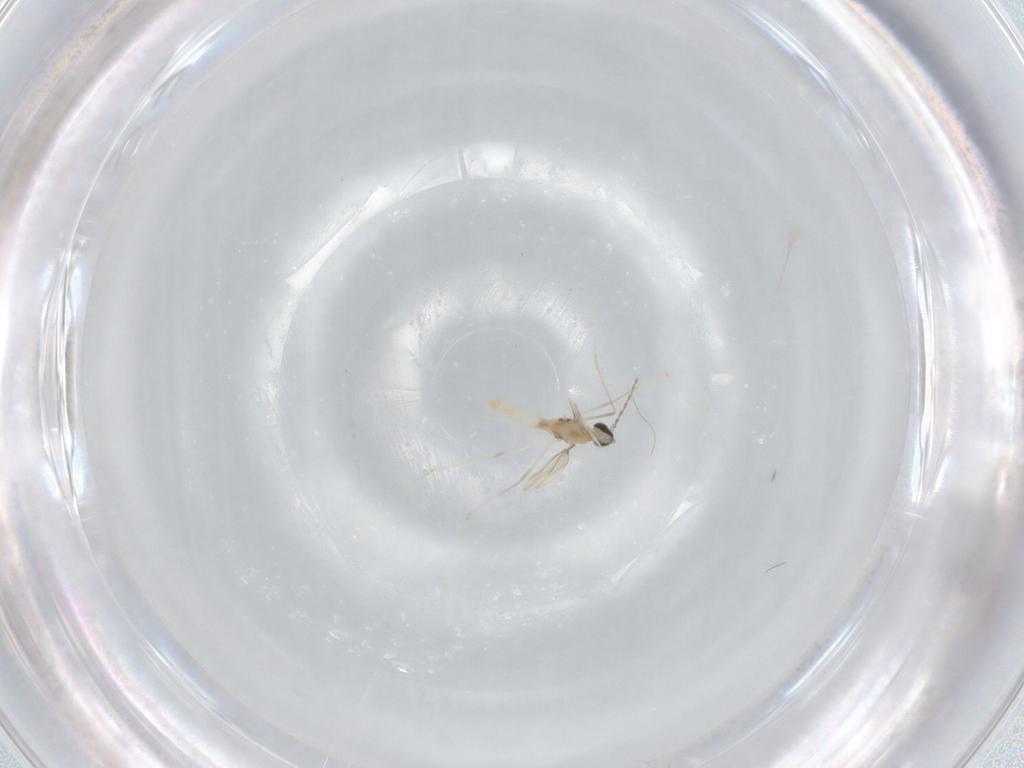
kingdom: Animalia
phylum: Arthropoda
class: Insecta
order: Diptera
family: Cecidomyiidae
